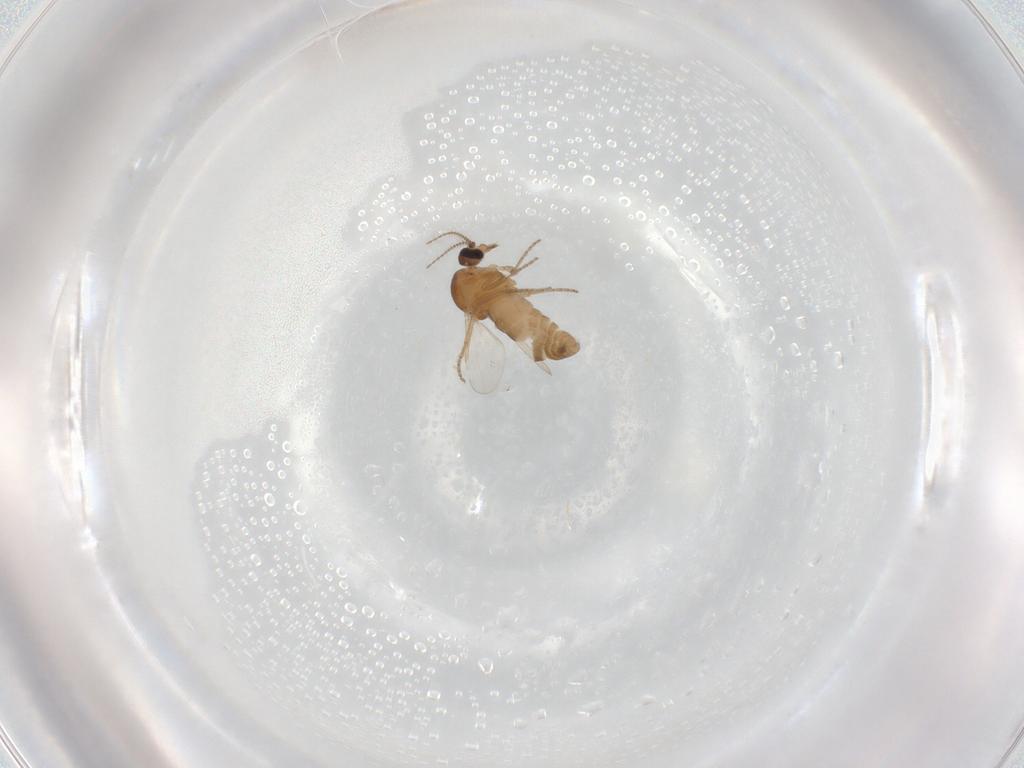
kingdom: Animalia
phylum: Arthropoda
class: Insecta
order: Diptera
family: Ceratopogonidae
